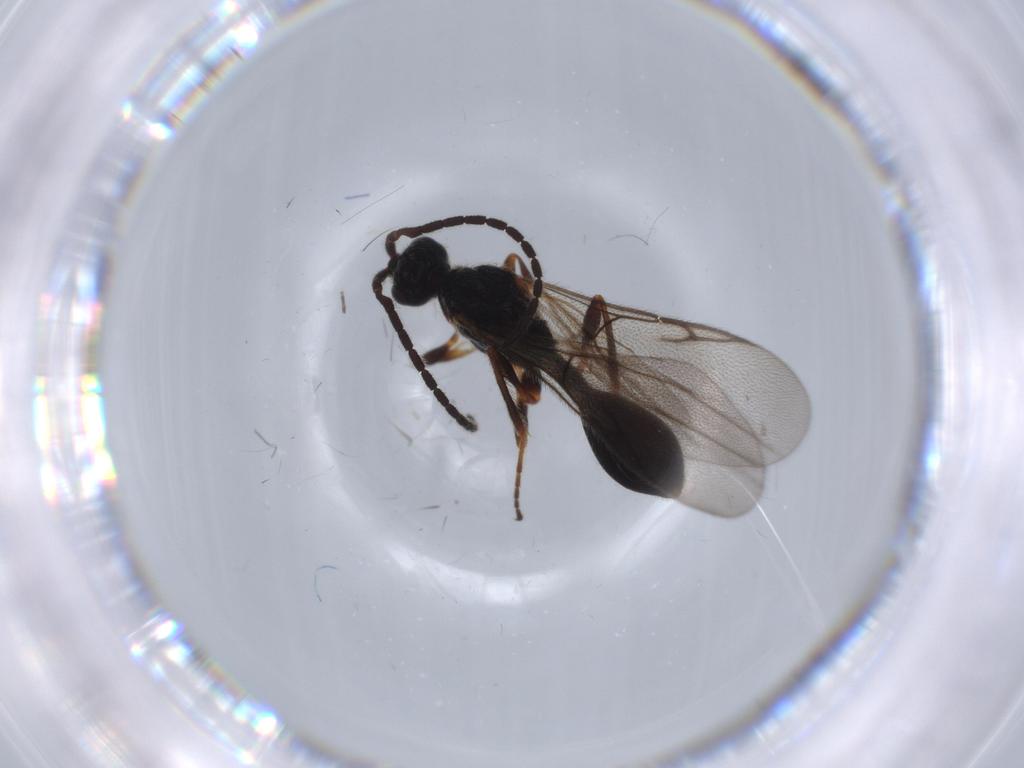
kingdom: Animalia
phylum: Arthropoda
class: Insecta
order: Hymenoptera
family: Diapriidae
